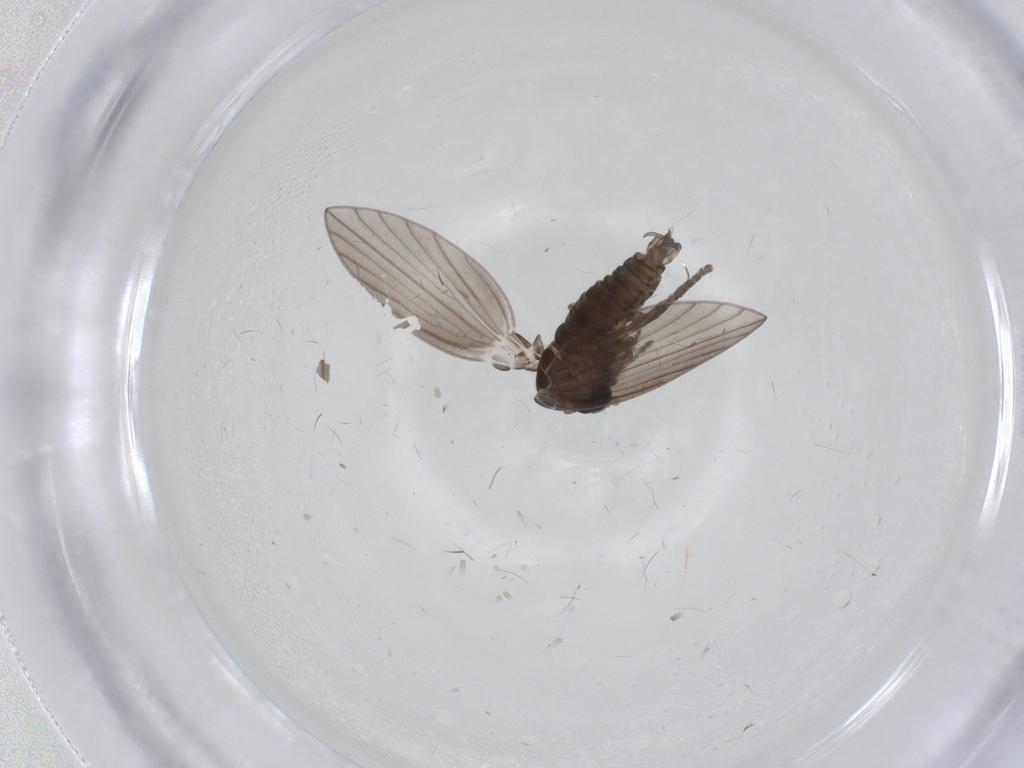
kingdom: Animalia
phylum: Arthropoda
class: Insecta
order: Diptera
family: Psychodidae
